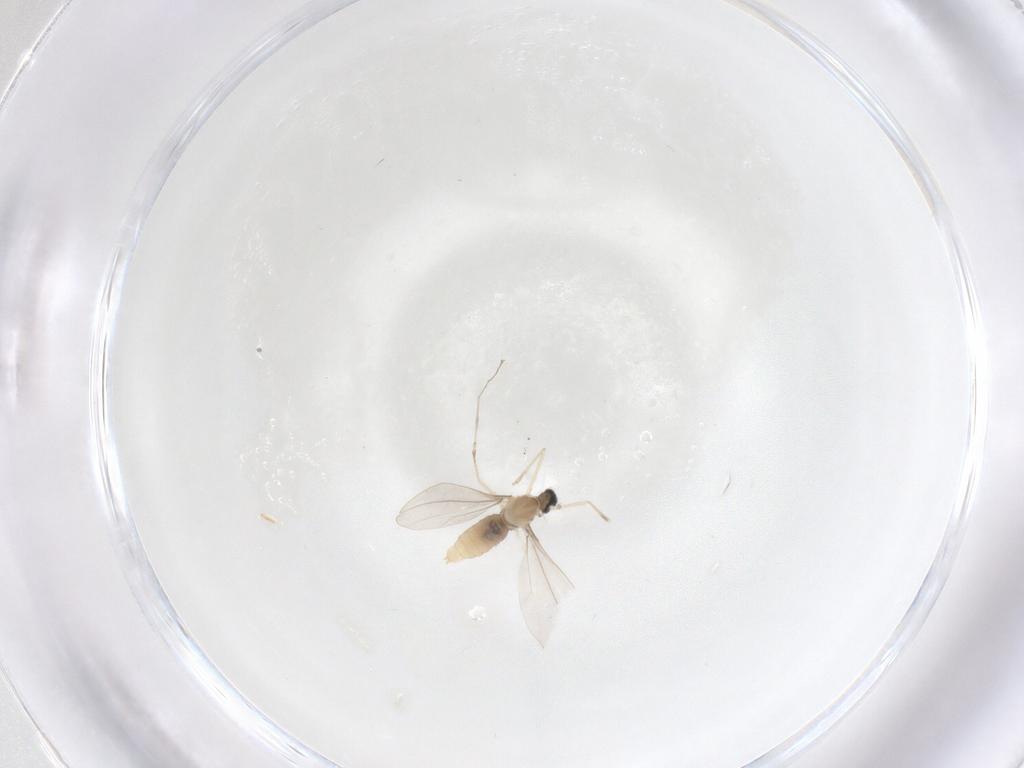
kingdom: Animalia
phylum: Arthropoda
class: Insecta
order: Diptera
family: Cecidomyiidae
